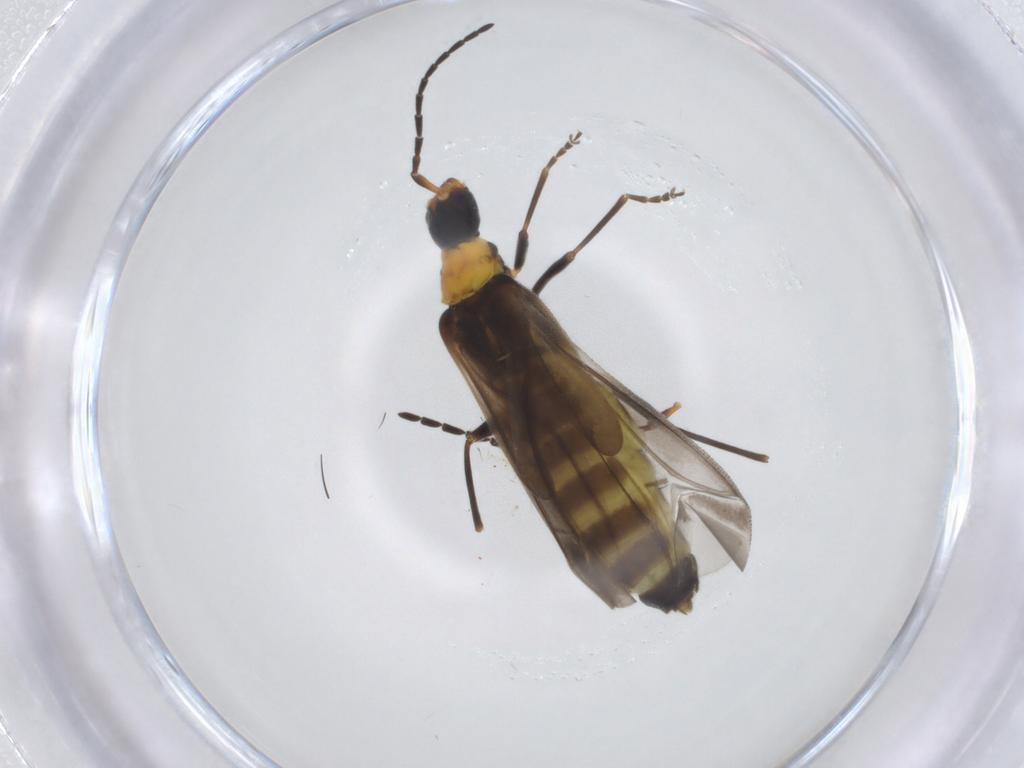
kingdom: Animalia
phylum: Arthropoda
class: Insecta
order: Coleoptera
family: Cantharidae
